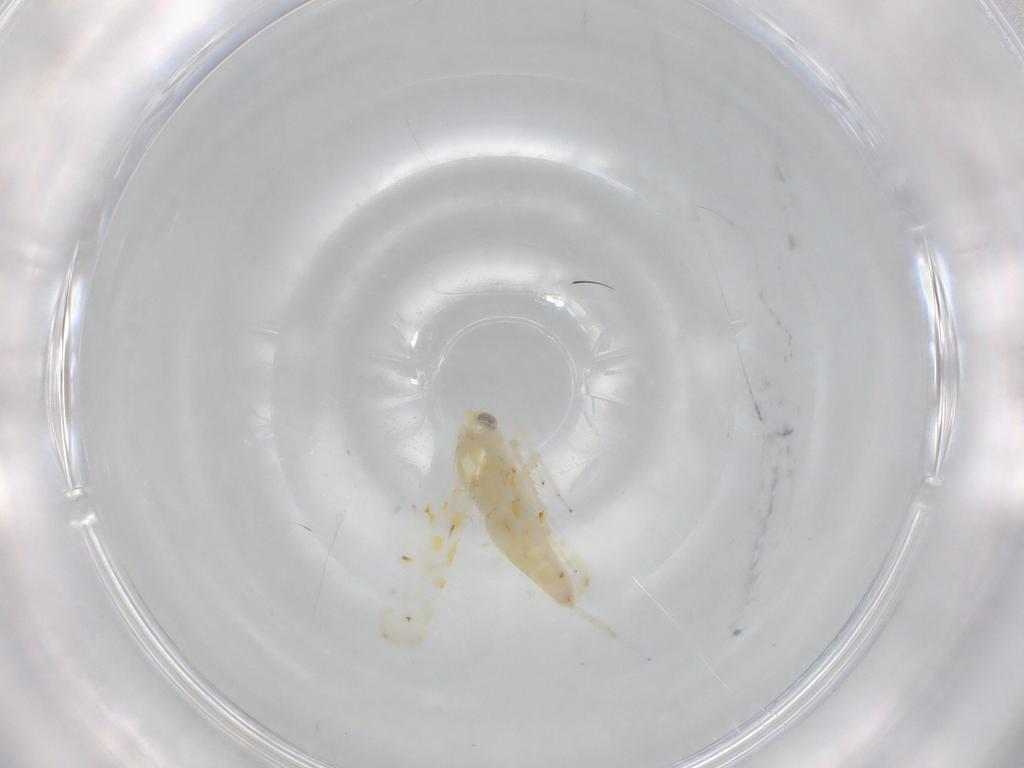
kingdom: Animalia
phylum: Arthropoda
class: Insecta
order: Hemiptera
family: Cicadellidae
